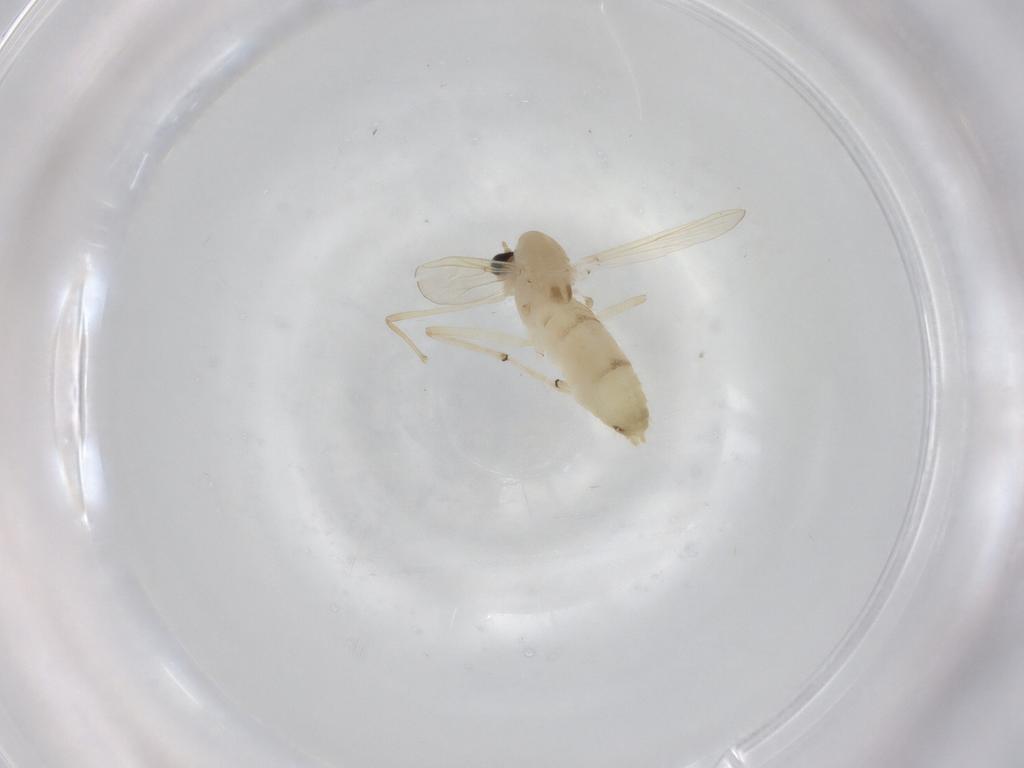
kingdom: Animalia
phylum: Arthropoda
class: Insecta
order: Diptera
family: Chironomidae
